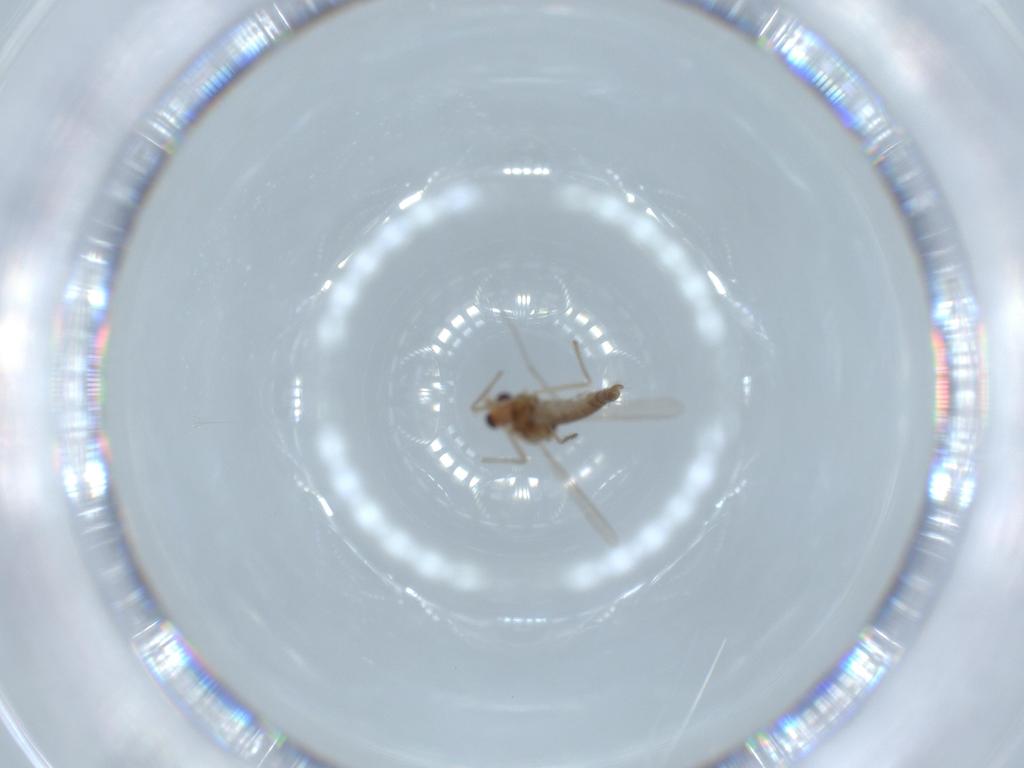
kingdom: Animalia
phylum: Arthropoda
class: Insecta
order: Diptera
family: Chironomidae
